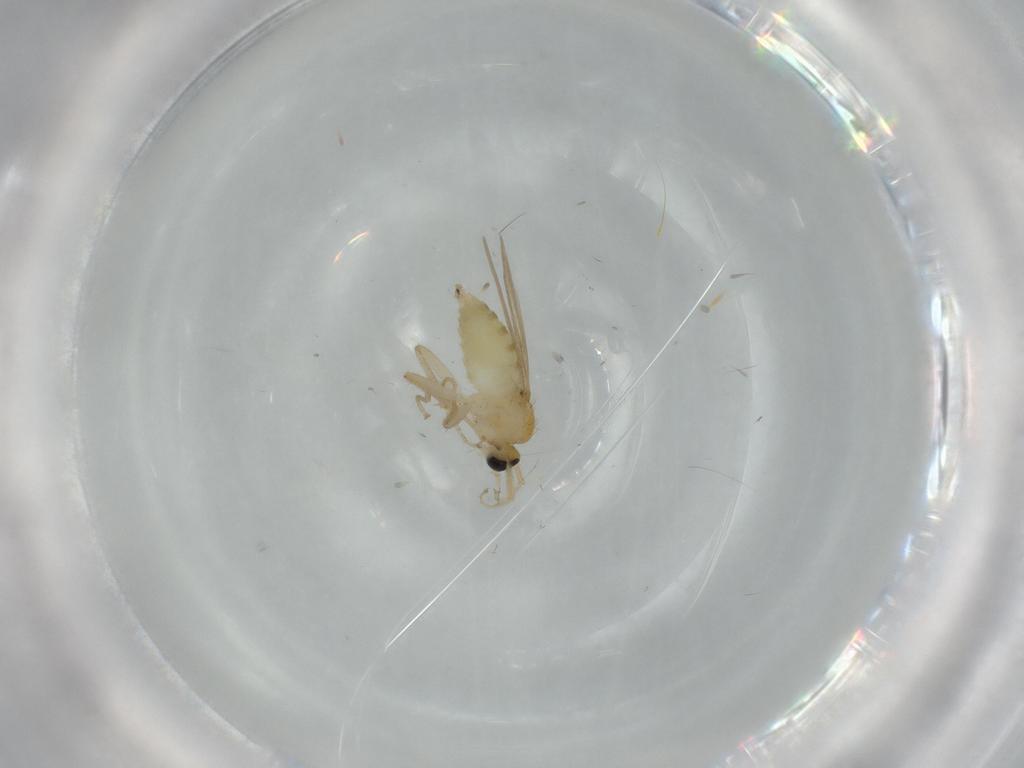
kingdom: Animalia
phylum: Arthropoda
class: Insecta
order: Diptera
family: Hybotidae
